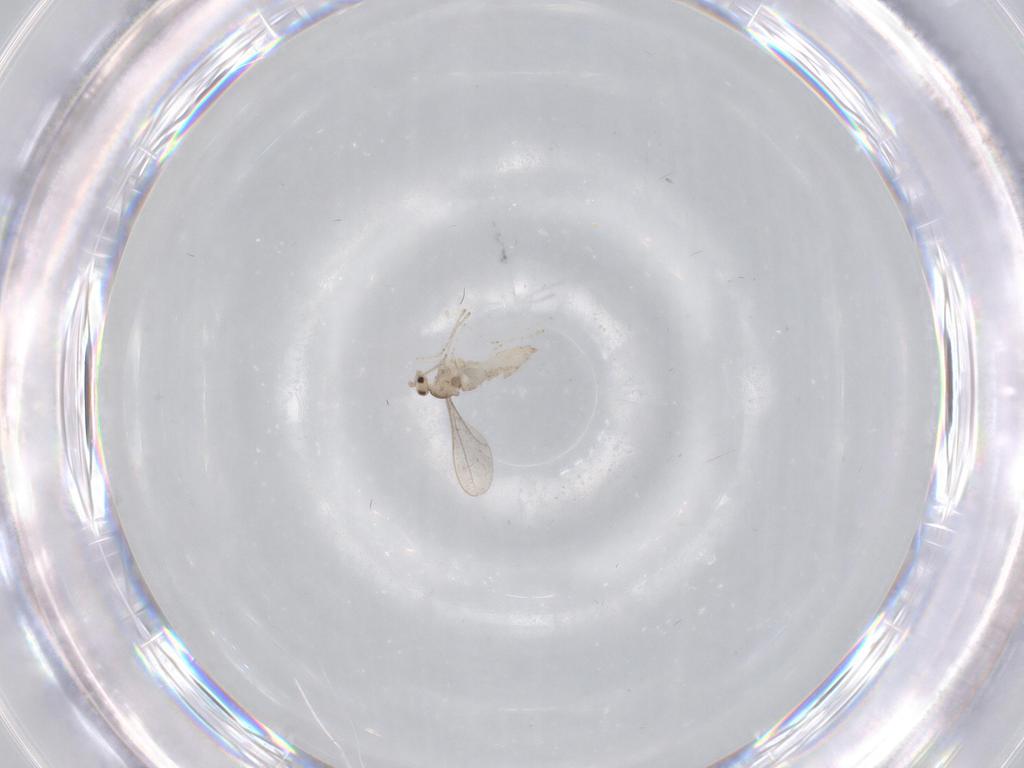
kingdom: Animalia
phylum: Arthropoda
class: Insecta
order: Diptera
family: Cecidomyiidae
